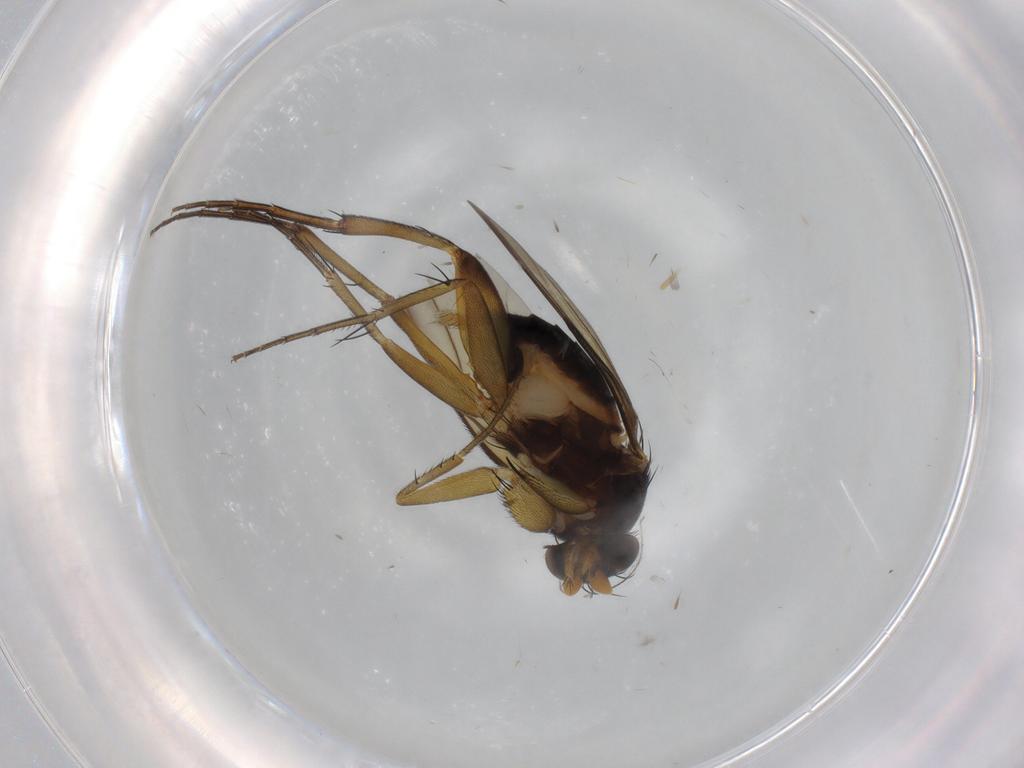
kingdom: Animalia
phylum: Arthropoda
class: Insecta
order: Diptera
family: Phoridae
